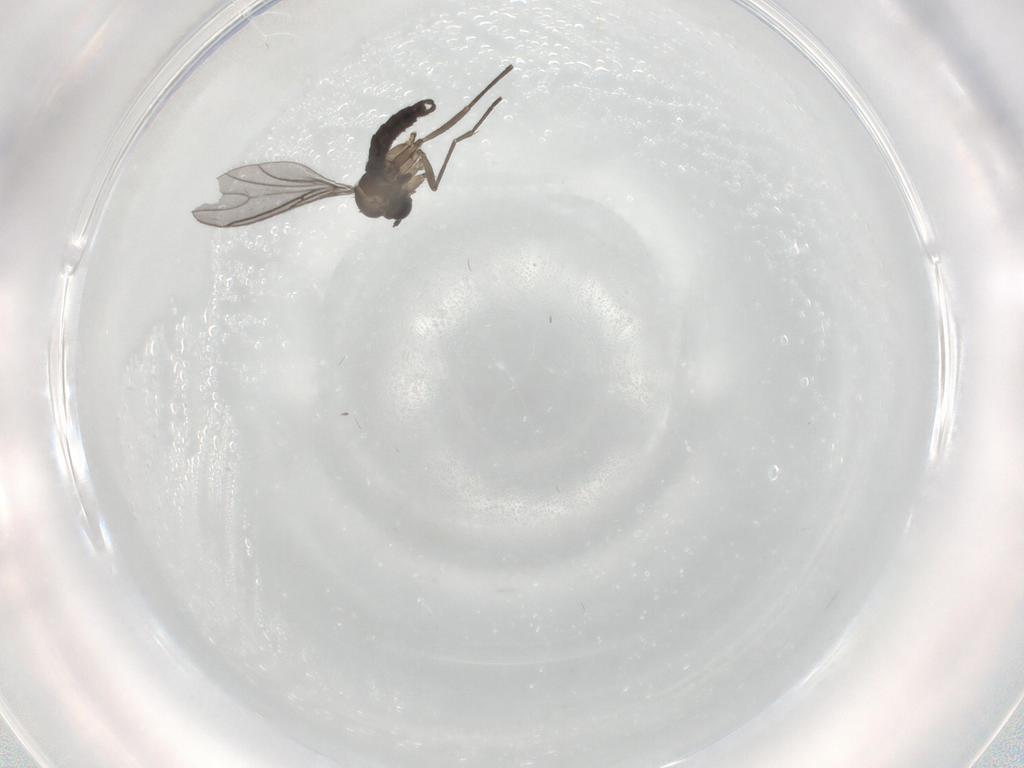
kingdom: Animalia
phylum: Arthropoda
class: Insecta
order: Diptera
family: Sciaridae
